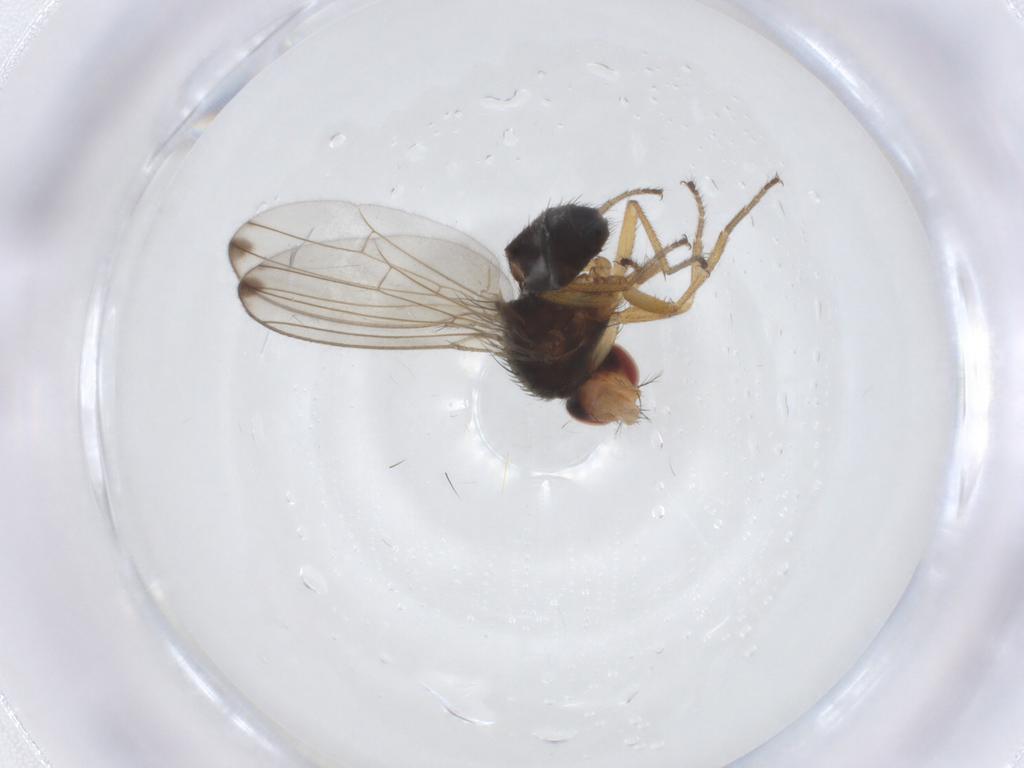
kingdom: Animalia
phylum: Arthropoda
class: Insecta
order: Diptera
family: Drosophilidae
